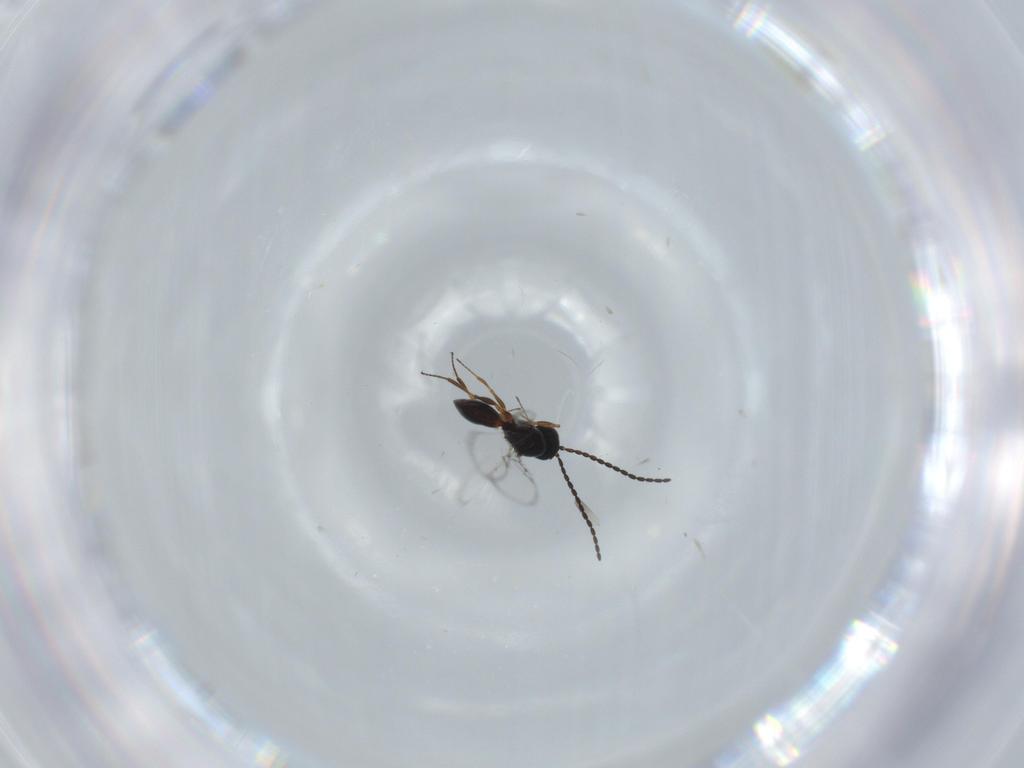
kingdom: Animalia
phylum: Arthropoda
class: Insecta
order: Hymenoptera
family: Figitidae
